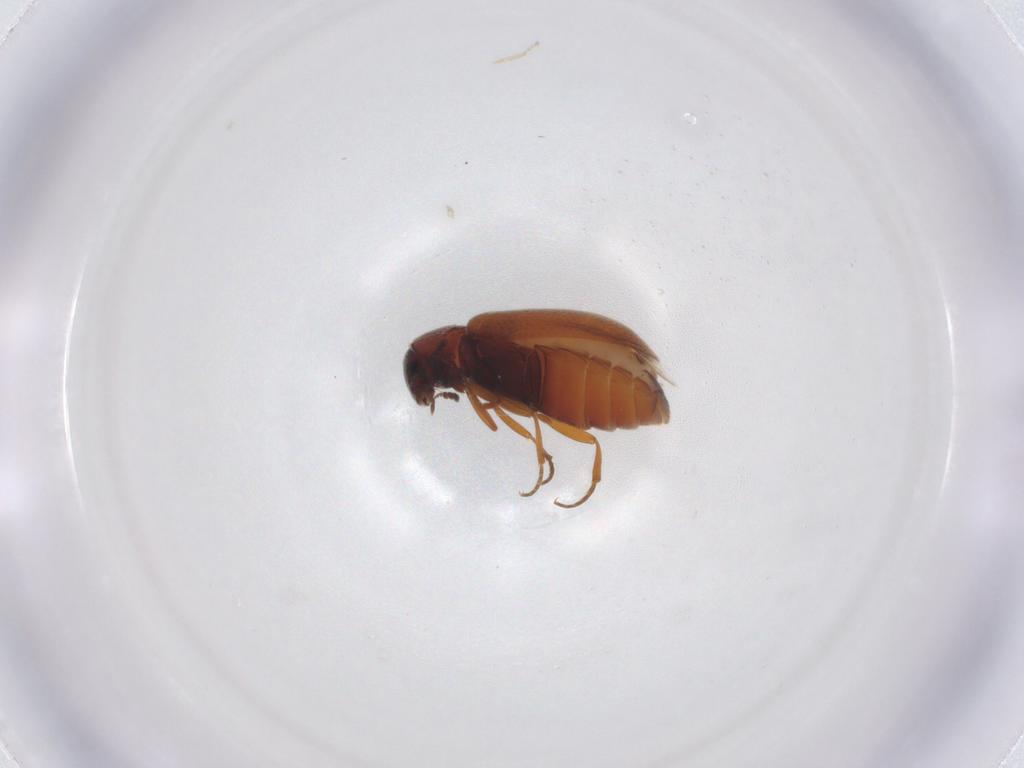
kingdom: Animalia
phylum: Arthropoda
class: Insecta
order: Coleoptera
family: Rhadalidae
